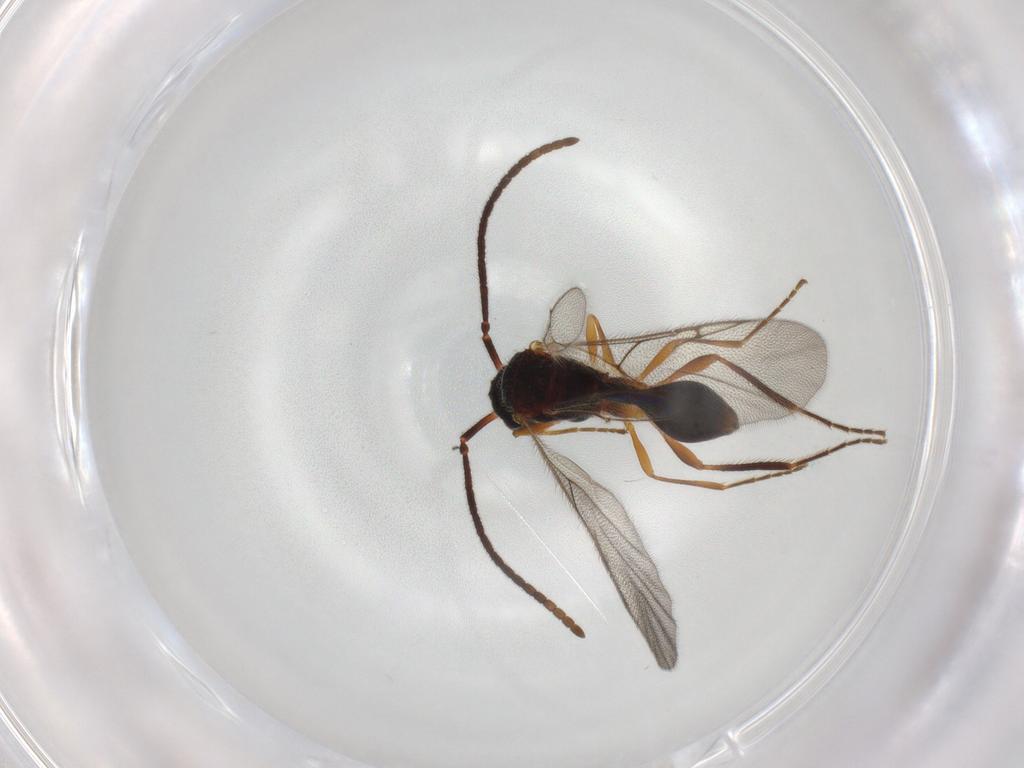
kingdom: Animalia
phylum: Arthropoda
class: Insecta
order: Hymenoptera
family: Diapriidae
